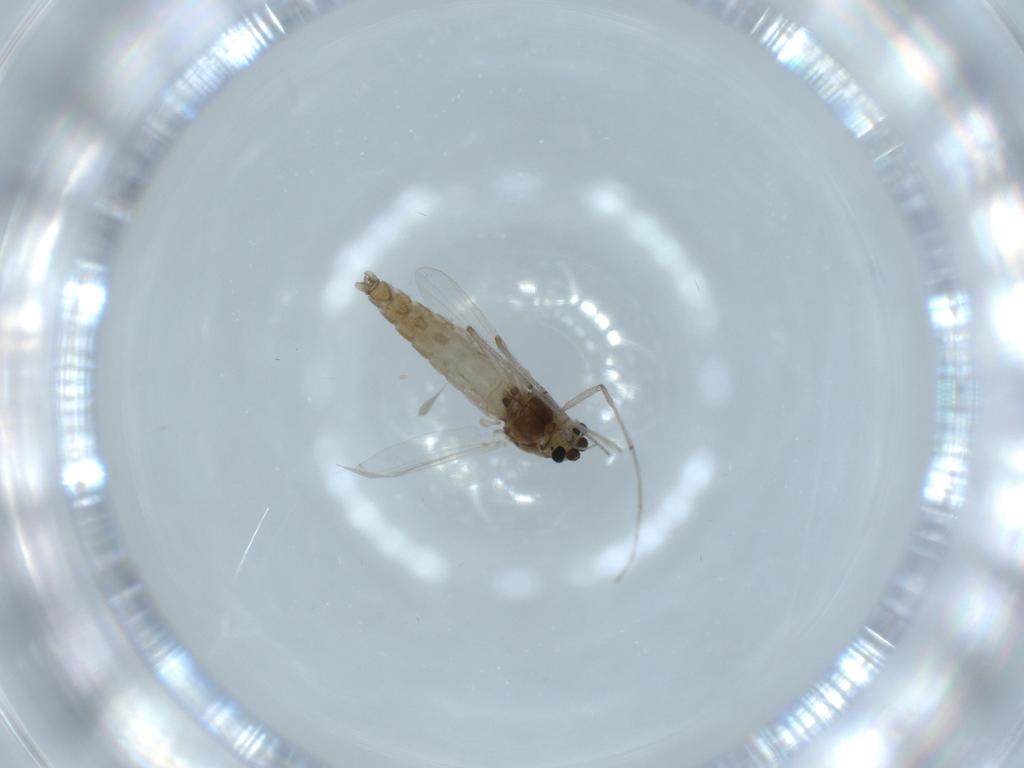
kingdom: Animalia
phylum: Arthropoda
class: Insecta
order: Diptera
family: Chironomidae
